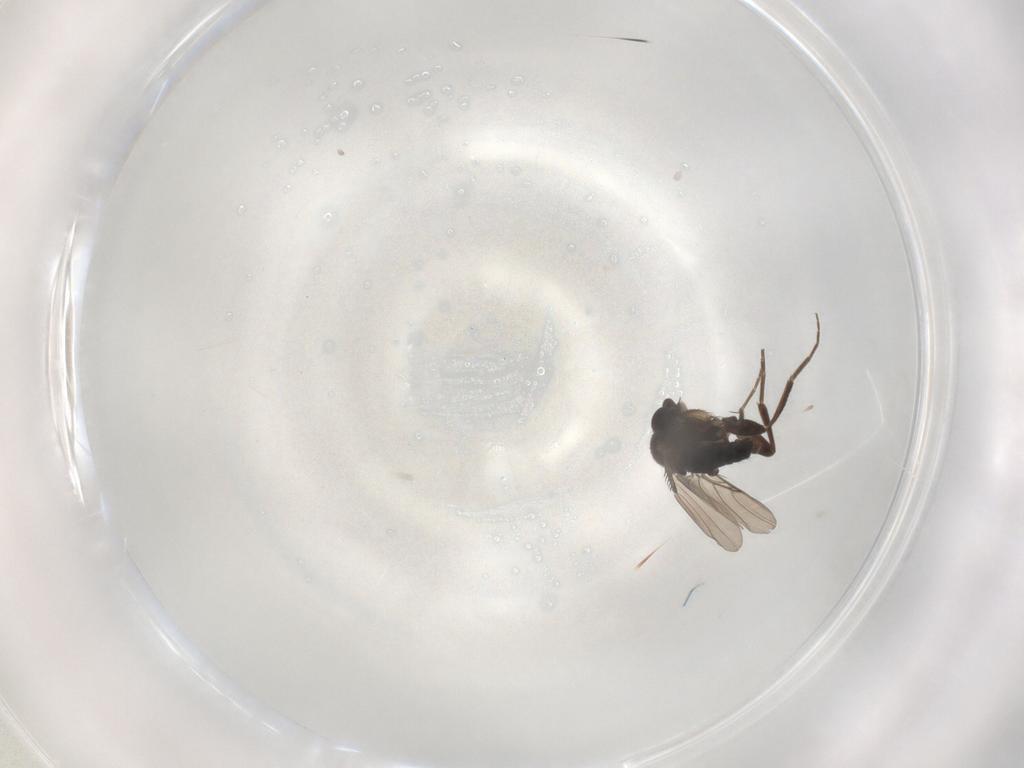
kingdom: Animalia
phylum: Arthropoda
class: Insecta
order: Diptera
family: Phoridae
